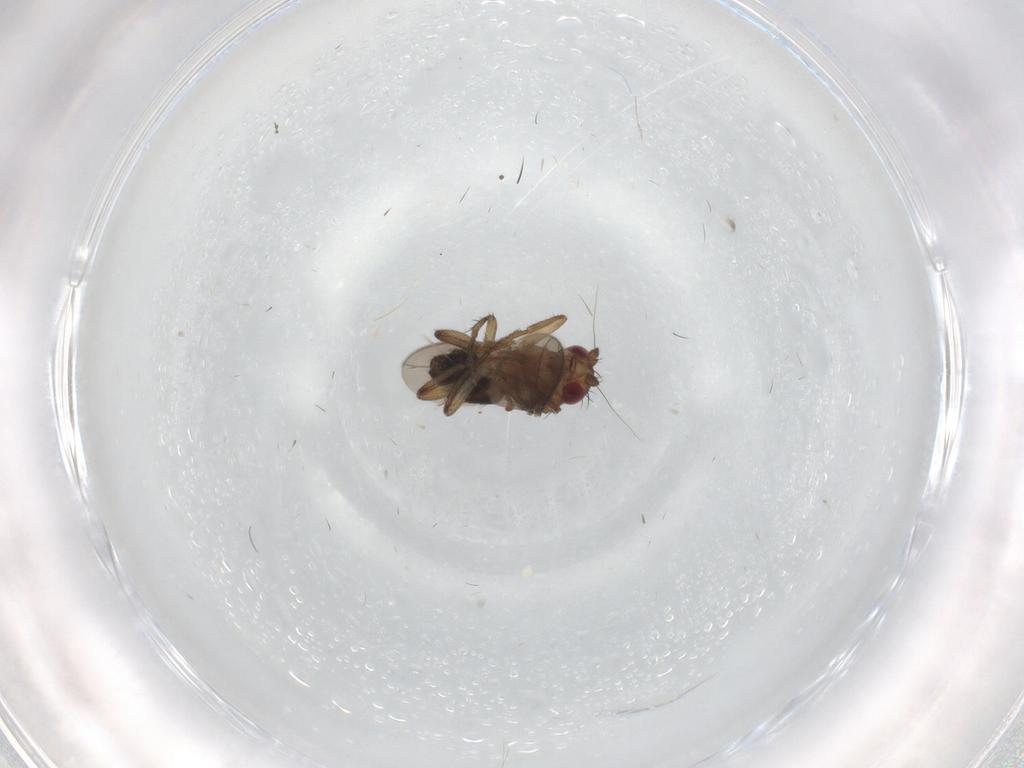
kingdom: Animalia
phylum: Arthropoda
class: Insecta
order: Diptera
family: Sphaeroceridae
